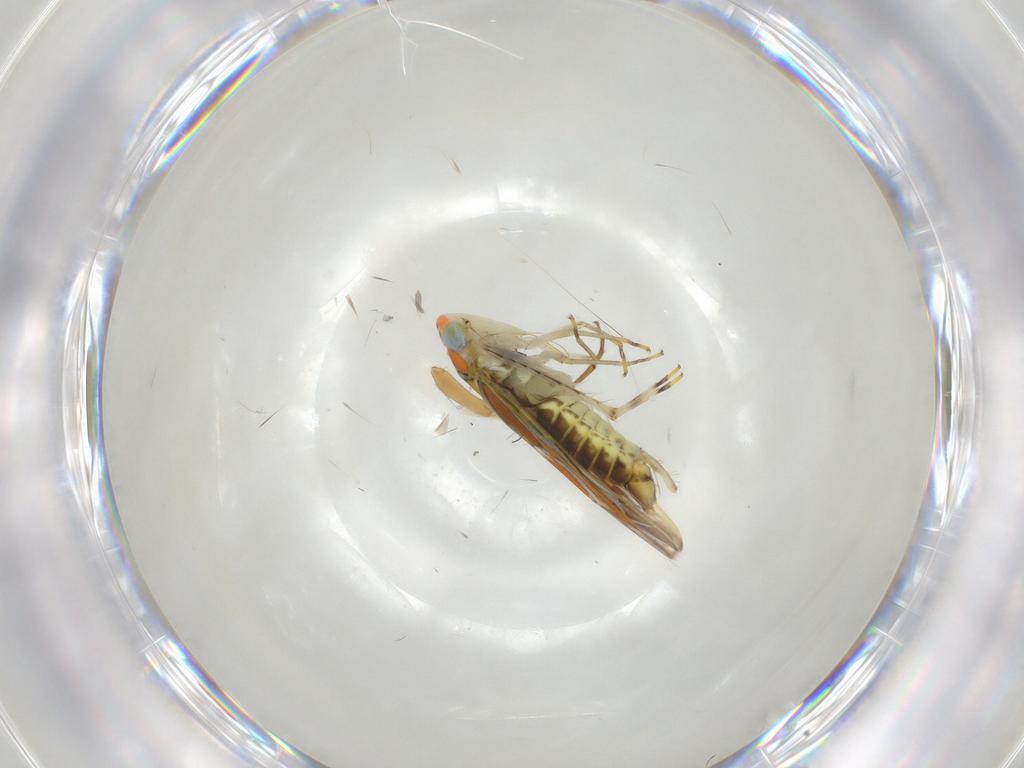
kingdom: Animalia
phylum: Arthropoda
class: Insecta
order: Hemiptera
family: Cicadellidae
